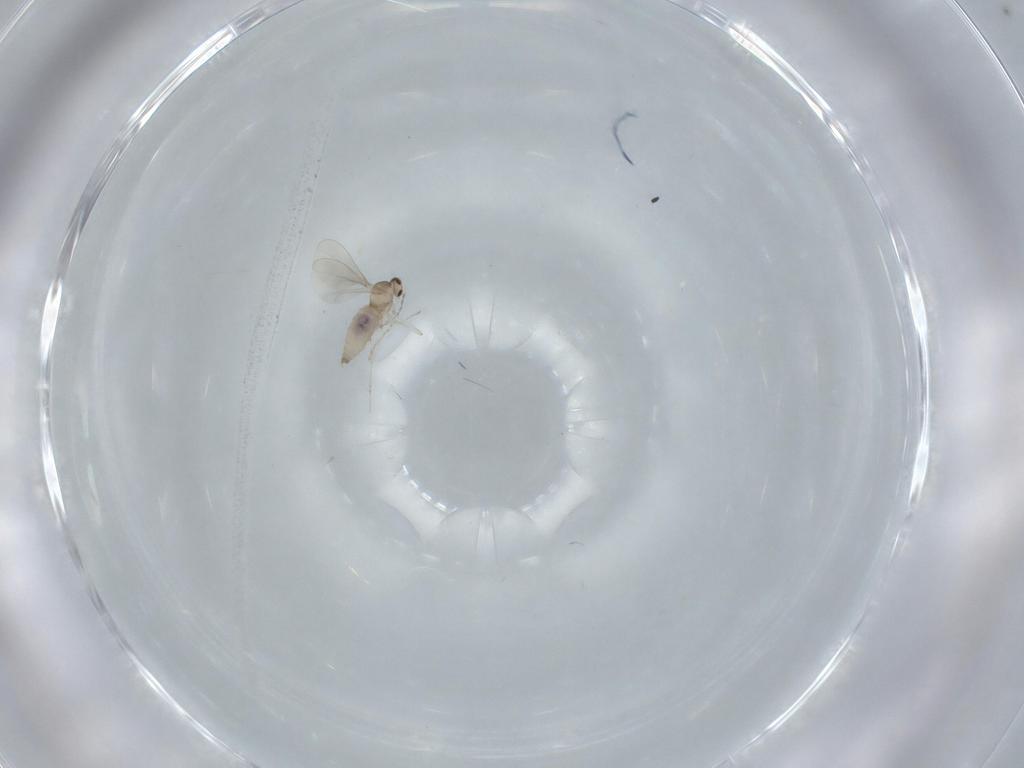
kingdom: Animalia
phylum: Arthropoda
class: Insecta
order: Diptera
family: Cecidomyiidae
